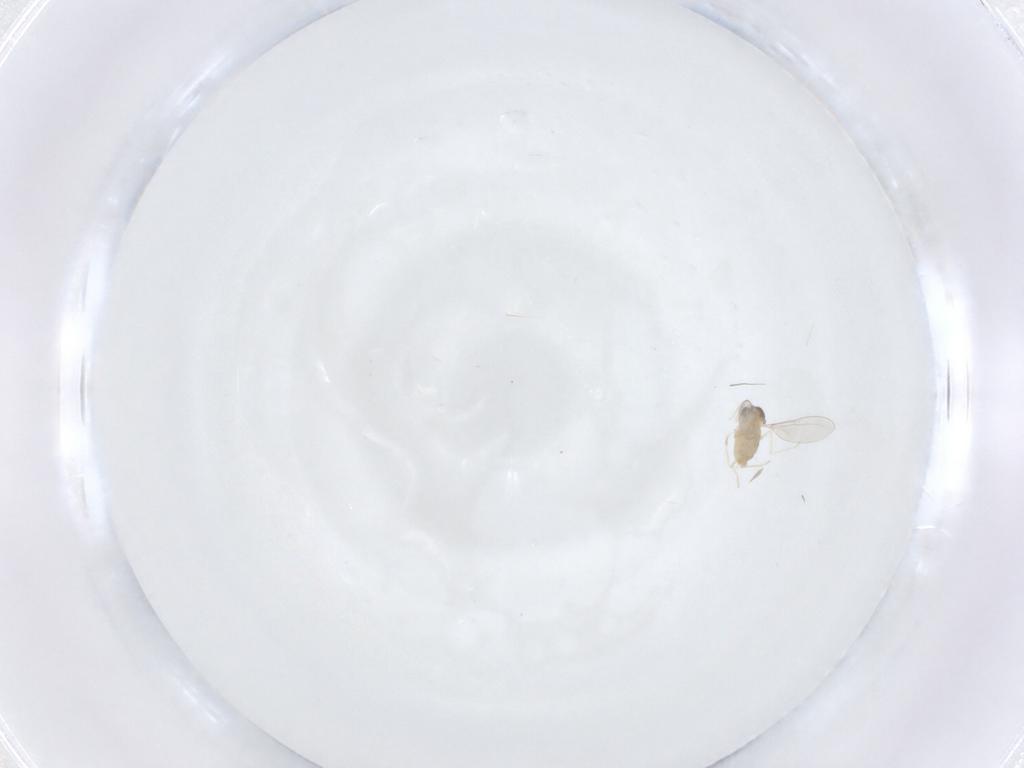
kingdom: Animalia
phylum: Arthropoda
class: Insecta
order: Diptera
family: Cecidomyiidae
